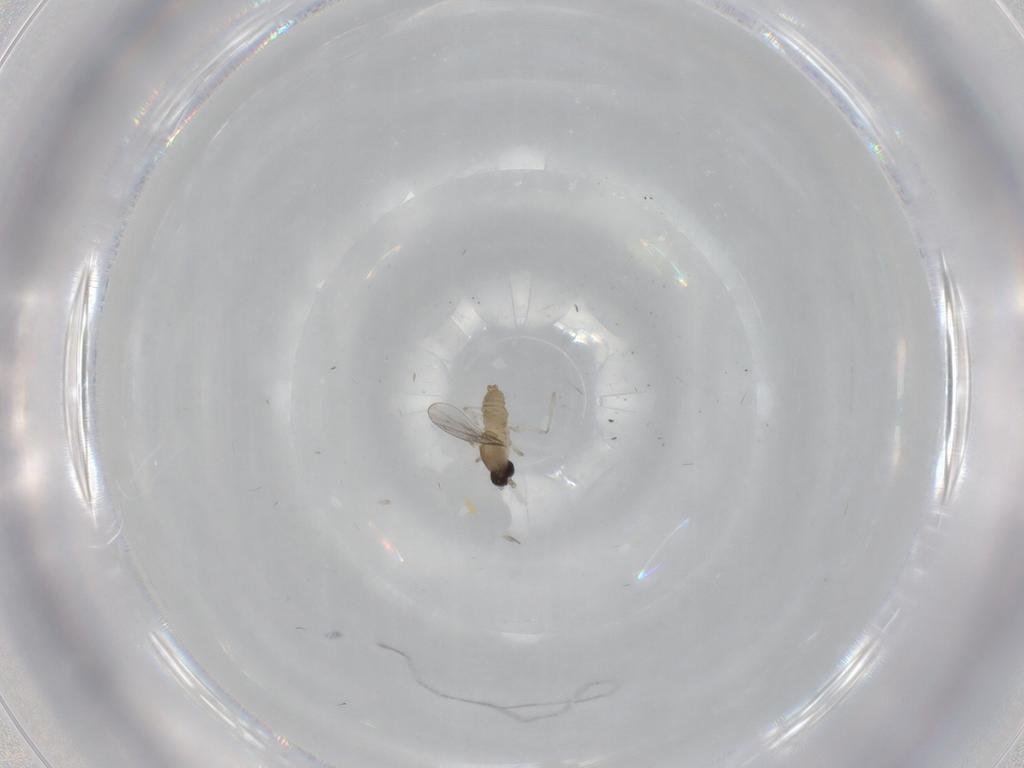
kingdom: Animalia
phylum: Arthropoda
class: Insecta
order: Diptera
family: Cecidomyiidae
